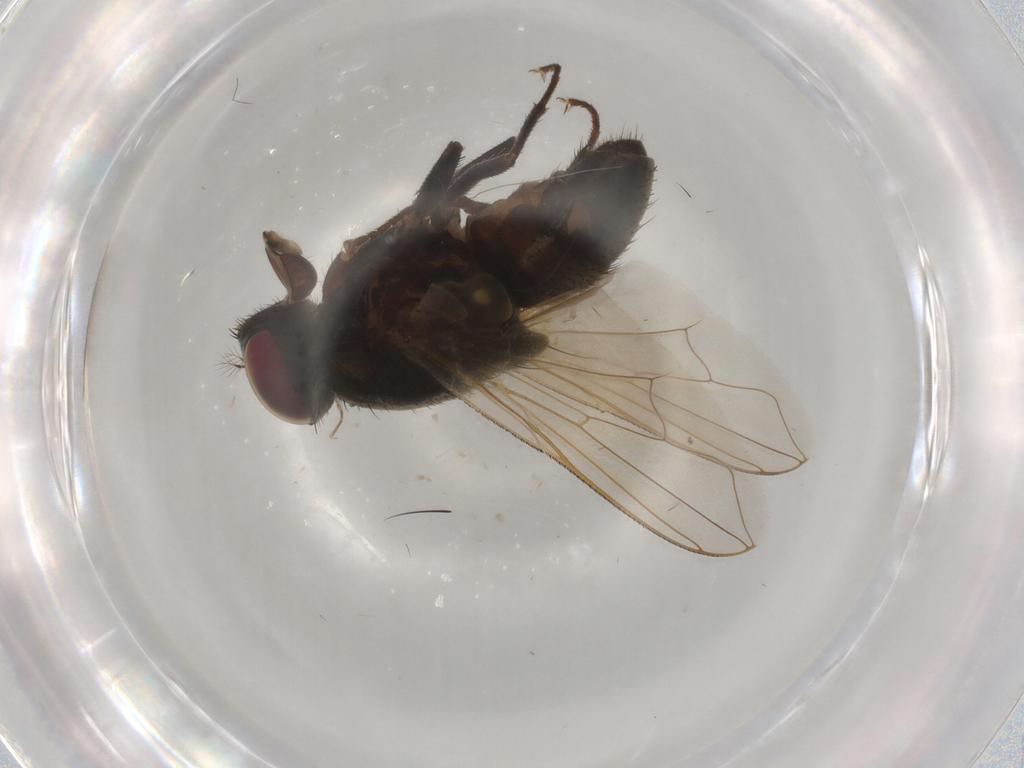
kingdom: Animalia
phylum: Arthropoda
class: Insecta
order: Diptera
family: Muscidae
